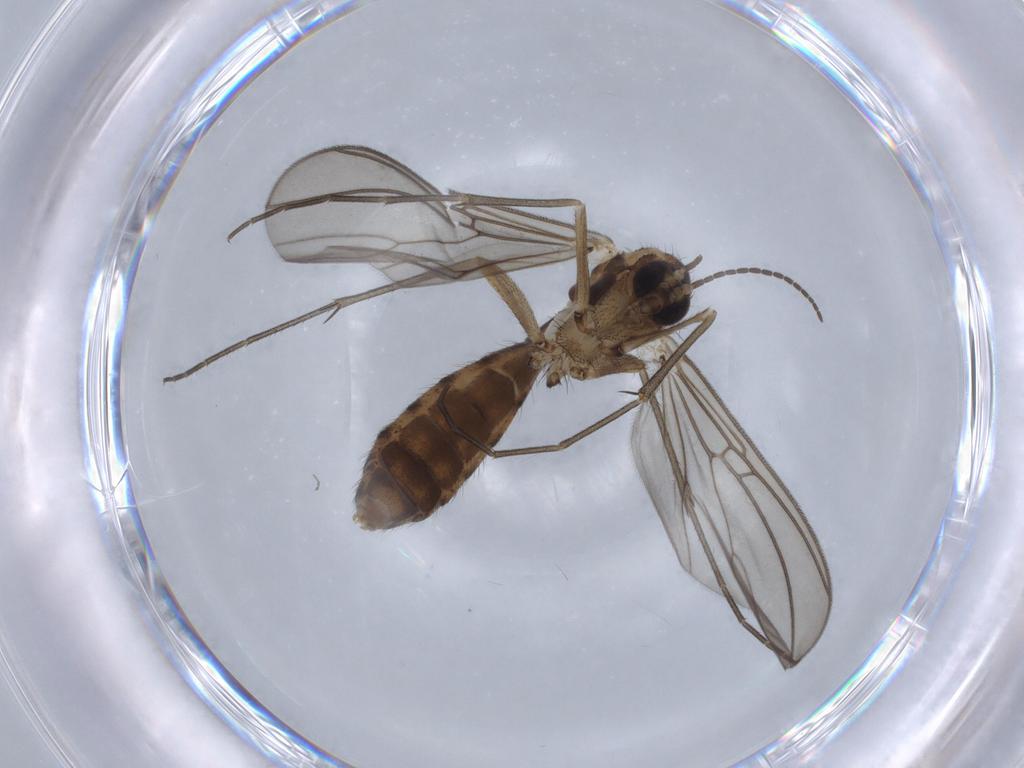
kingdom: Animalia
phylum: Arthropoda
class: Insecta
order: Diptera
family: Mycetophilidae
